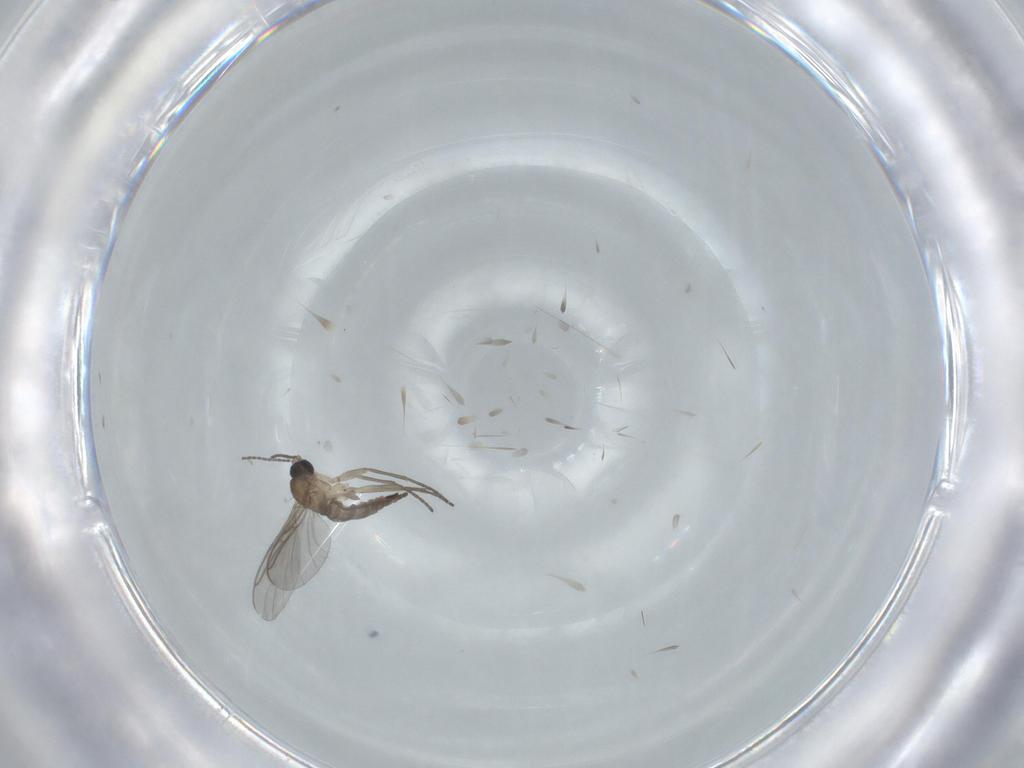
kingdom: Animalia
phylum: Arthropoda
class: Insecta
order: Diptera
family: Sciaridae
